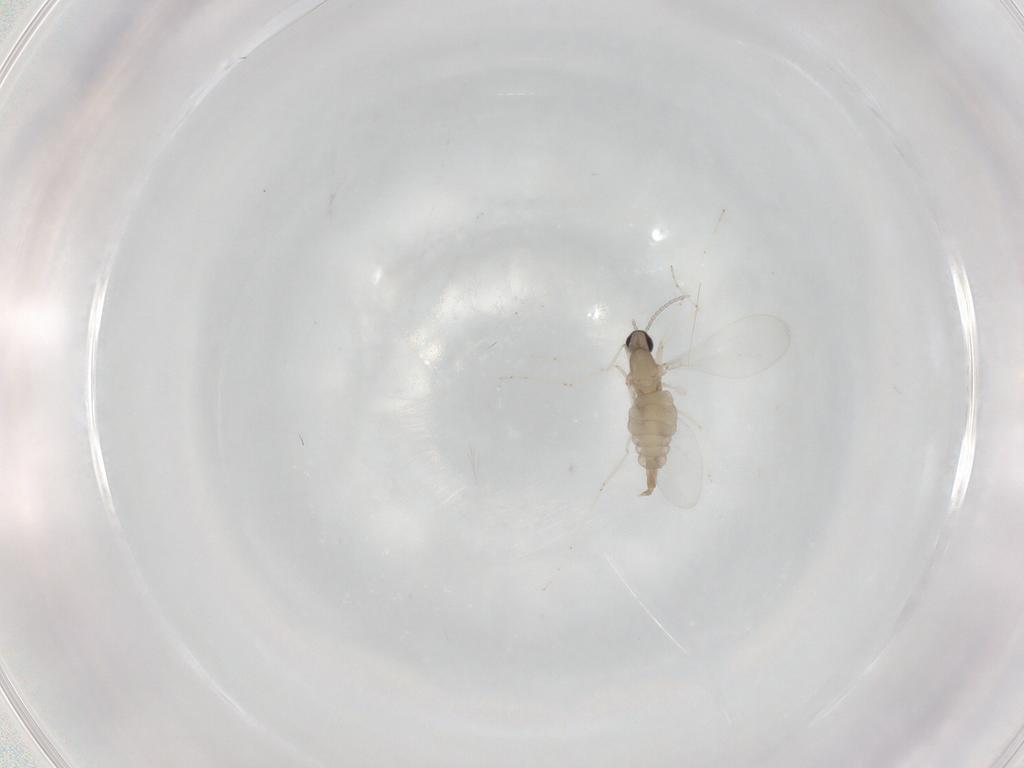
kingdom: Animalia
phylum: Arthropoda
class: Insecta
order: Diptera
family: Cecidomyiidae
